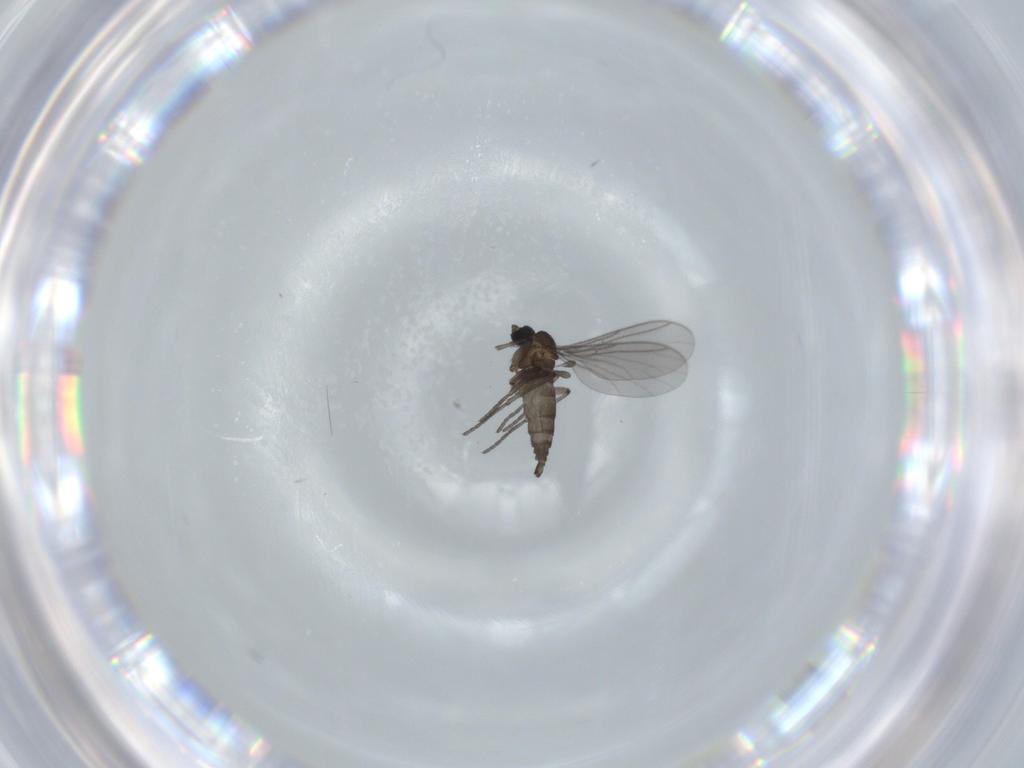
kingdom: Animalia
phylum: Arthropoda
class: Insecta
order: Diptera
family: Sciaridae
